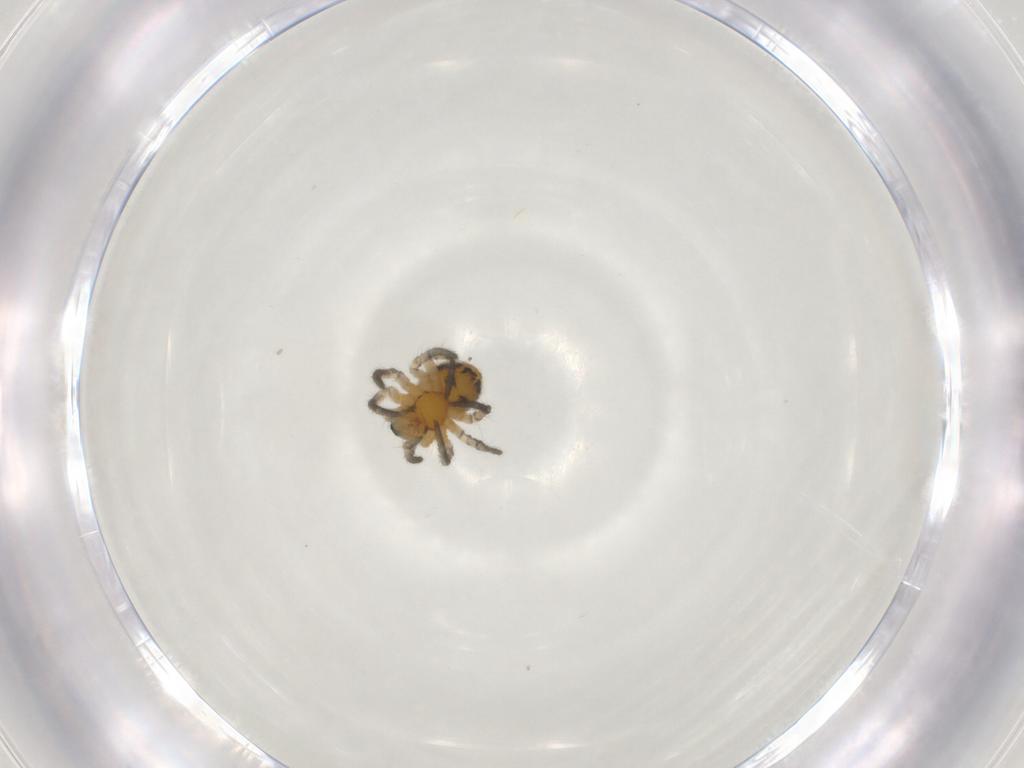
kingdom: Animalia
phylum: Arthropoda
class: Arachnida
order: Araneae
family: Araneidae
